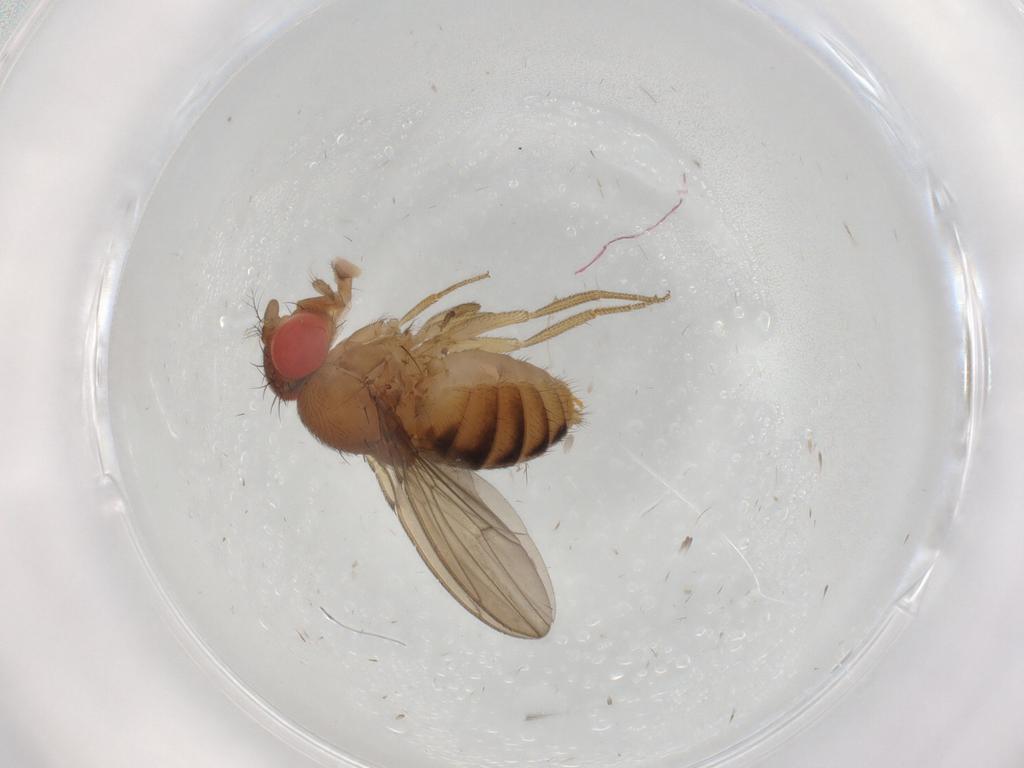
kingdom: Animalia
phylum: Arthropoda
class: Insecta
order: Diptera
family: Drosophilidae
